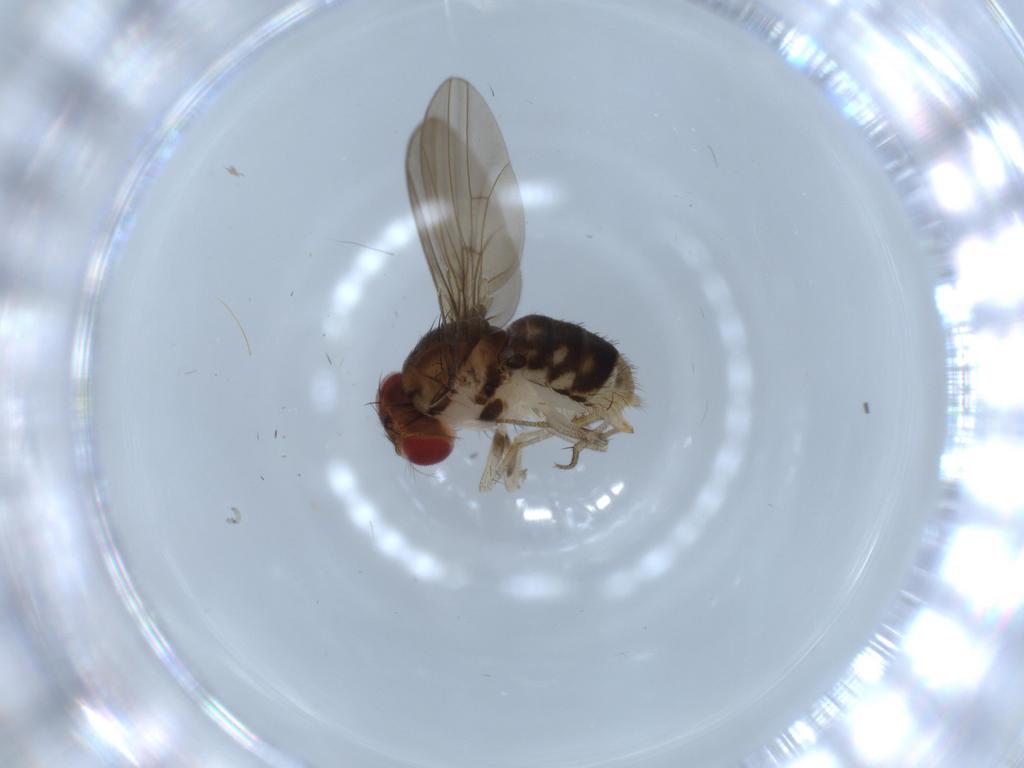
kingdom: Animalia
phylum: Arthropoda
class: Insecta
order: Diptera
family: Drosophilidae
